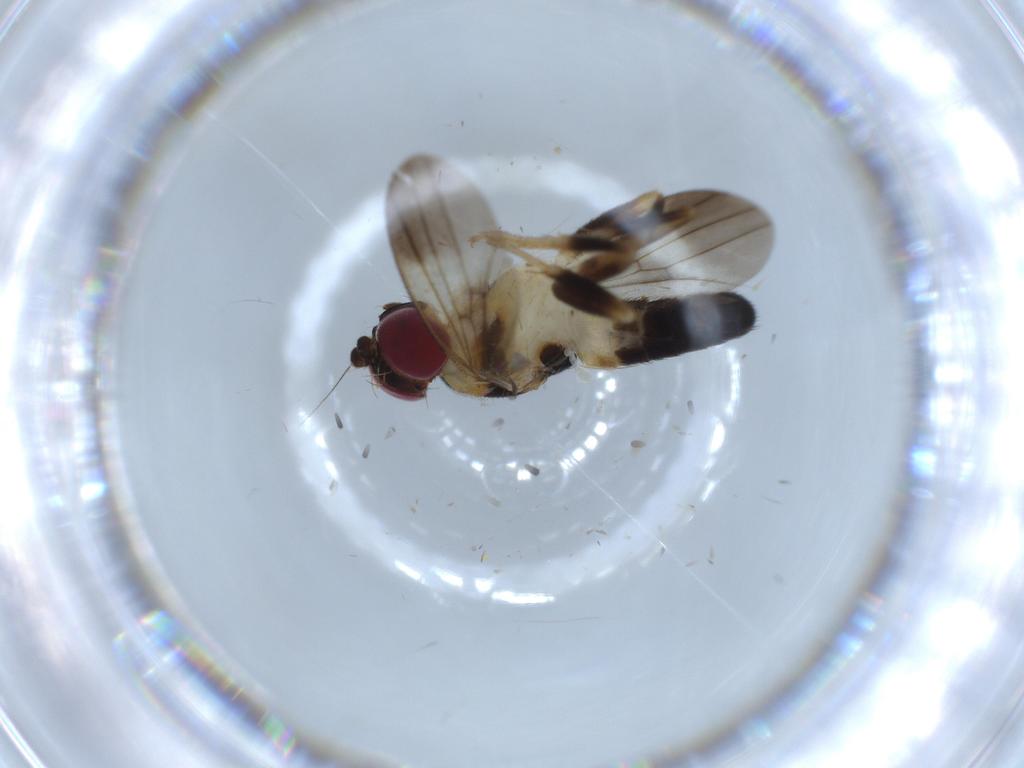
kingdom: Animalia
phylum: Arthropoda
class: Insecta
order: Diptera
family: Clusiidae
